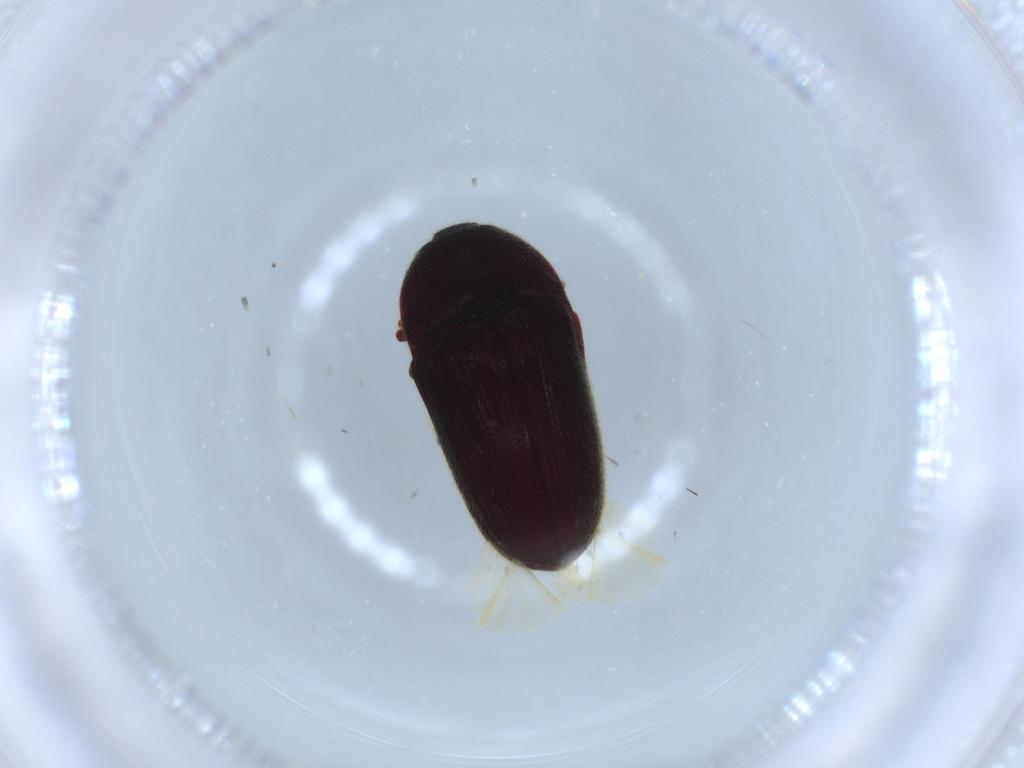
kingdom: Animalia
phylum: Arthropoda
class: Insecta
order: Coleoptera
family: Throscidae
